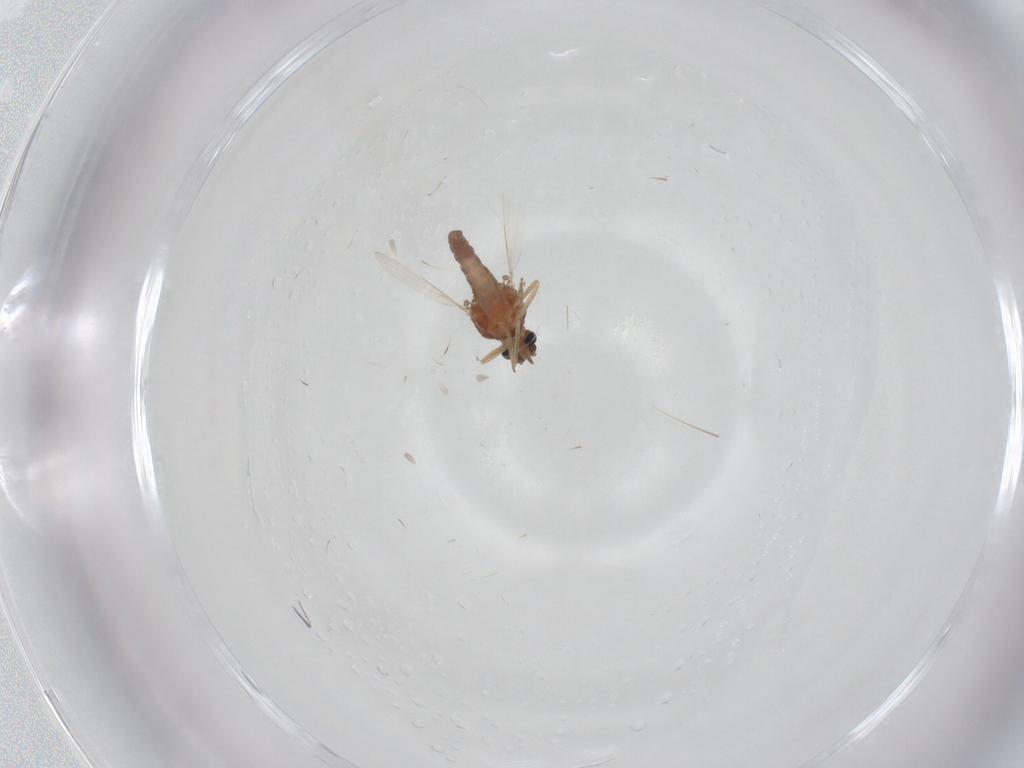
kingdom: Animalia
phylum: Arthropoda
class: Insecta
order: Diptera
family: Ceratopogonidae
